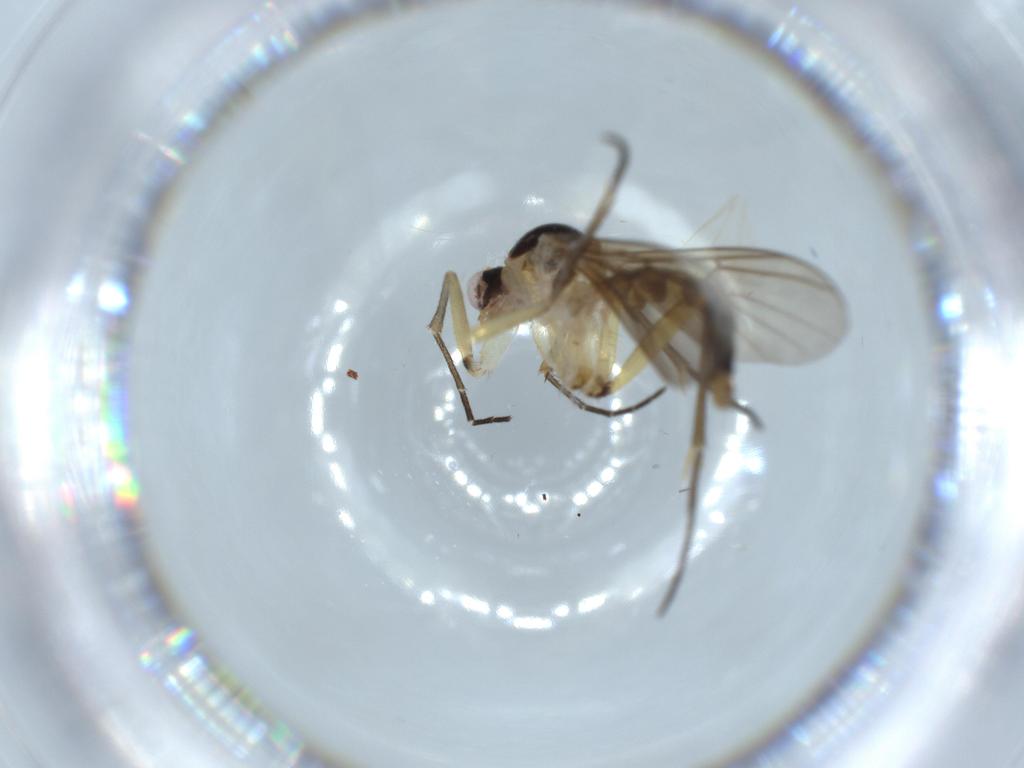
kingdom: Animalia
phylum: Arthropoda
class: Insecta
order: Diptera
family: Mycetophilidae
